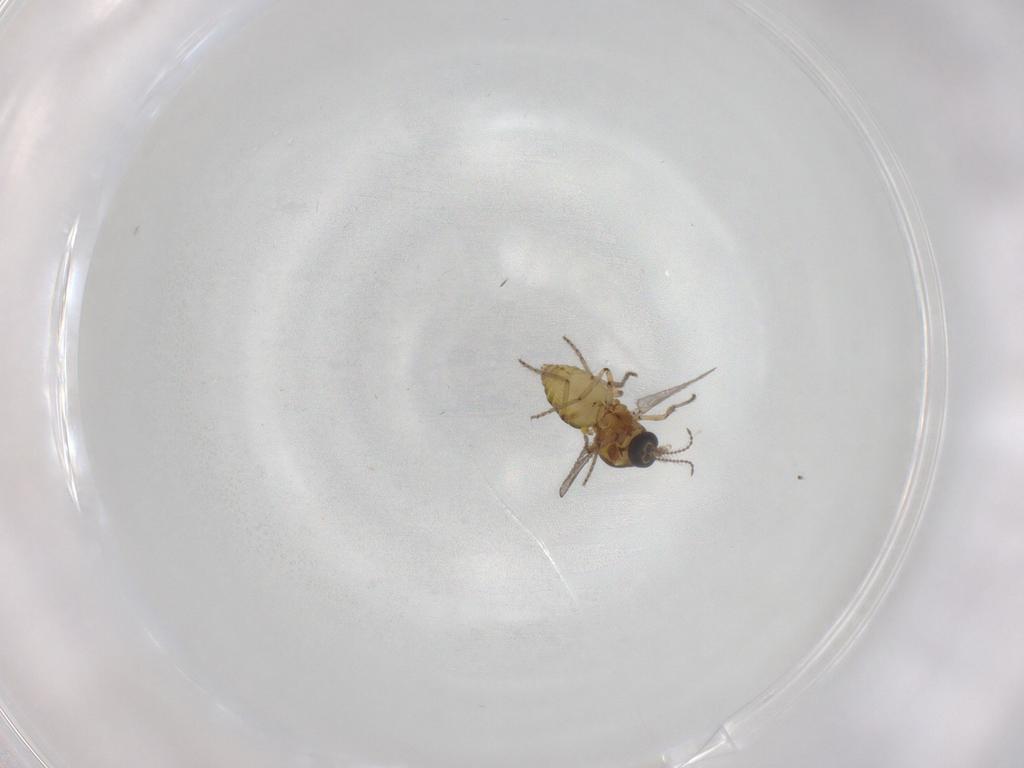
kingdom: Animalia
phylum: Arthropoda
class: Insecta
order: Diptera
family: Ceratopogonidae
